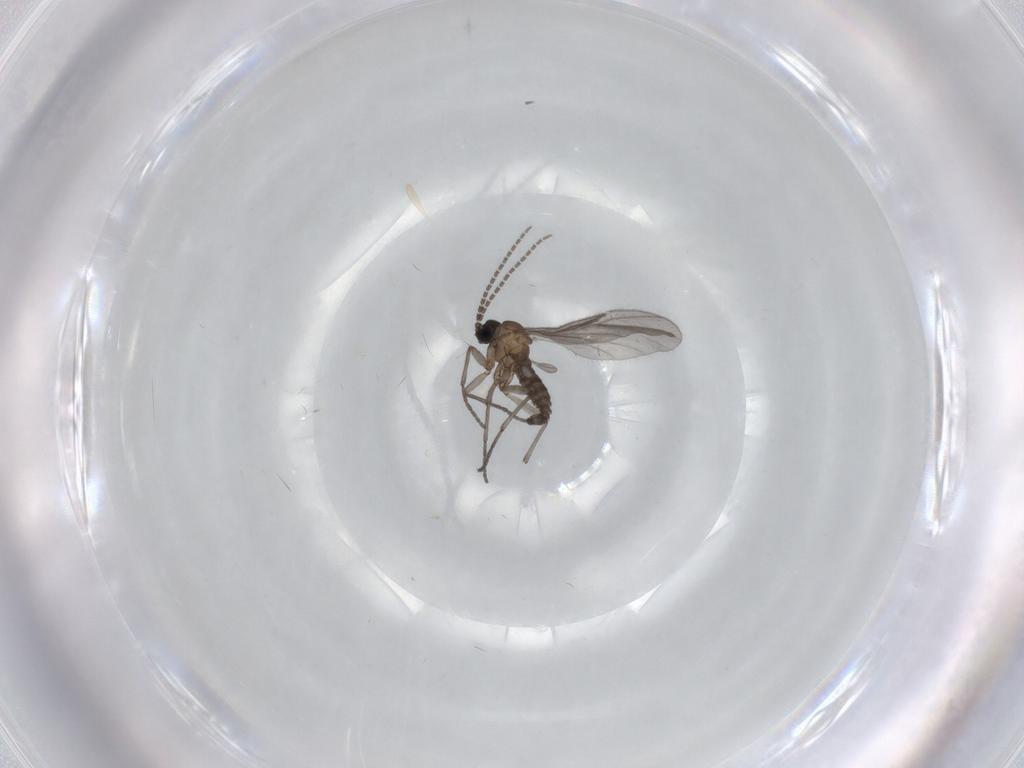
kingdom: Animalia
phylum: Arthropoda
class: Insecta
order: Diptera
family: Sciaridae
